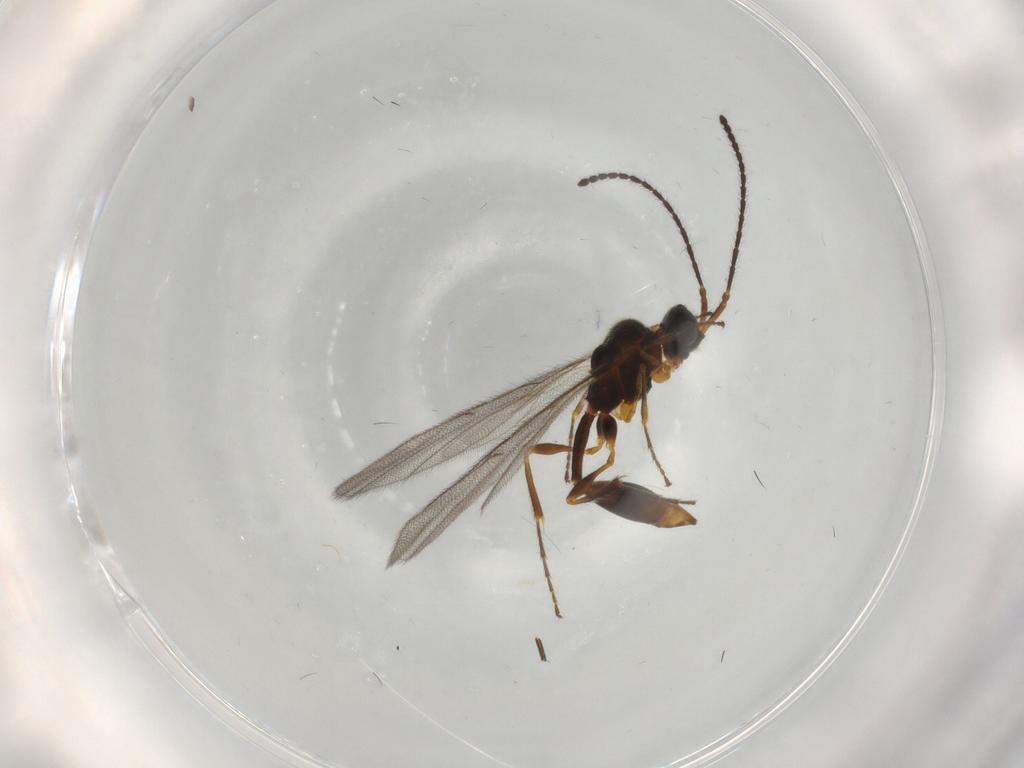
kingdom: Animalia
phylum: Arthropoda
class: Insecta
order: Hymenoptera
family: Diapriidae
